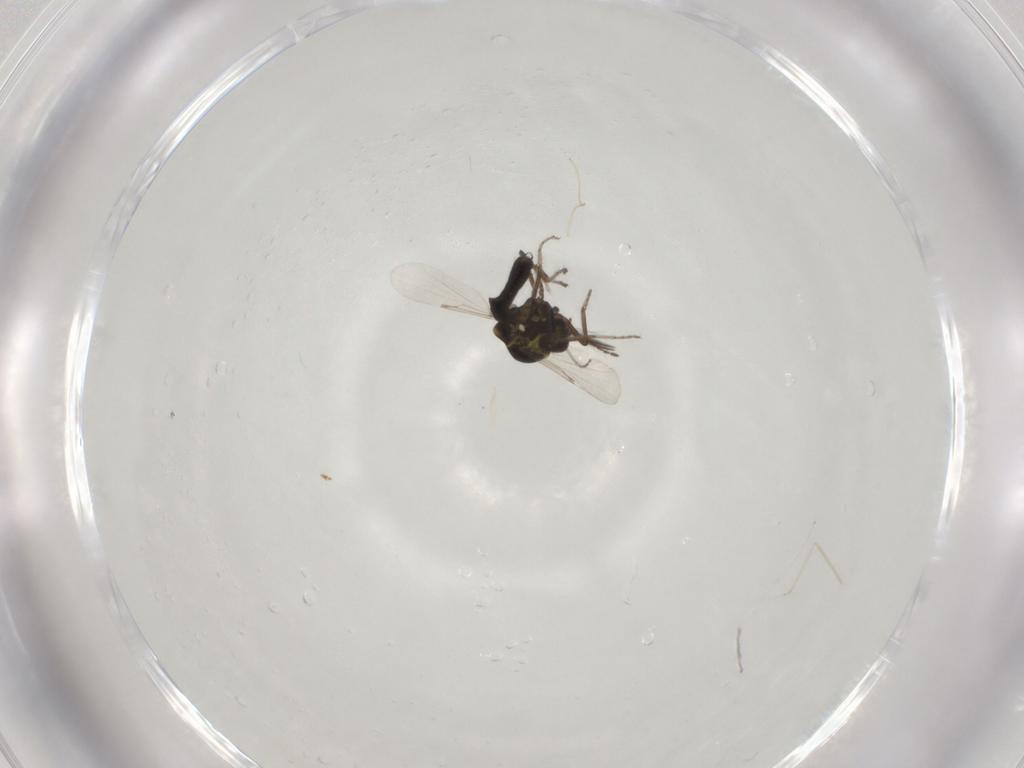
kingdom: Animalia
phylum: Arthropoda
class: Insecta
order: Diptera
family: Ceratopogonidae
